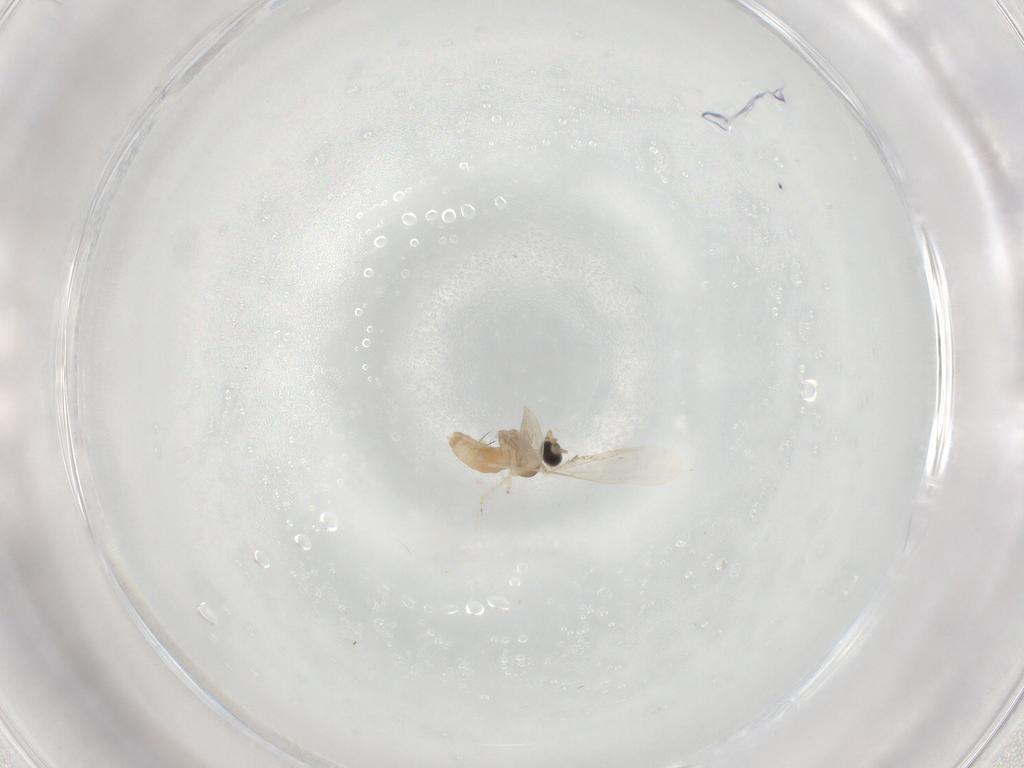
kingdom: Animalia
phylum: Arthropoda
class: Insecta
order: Diptera
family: Cecidomyiidae
